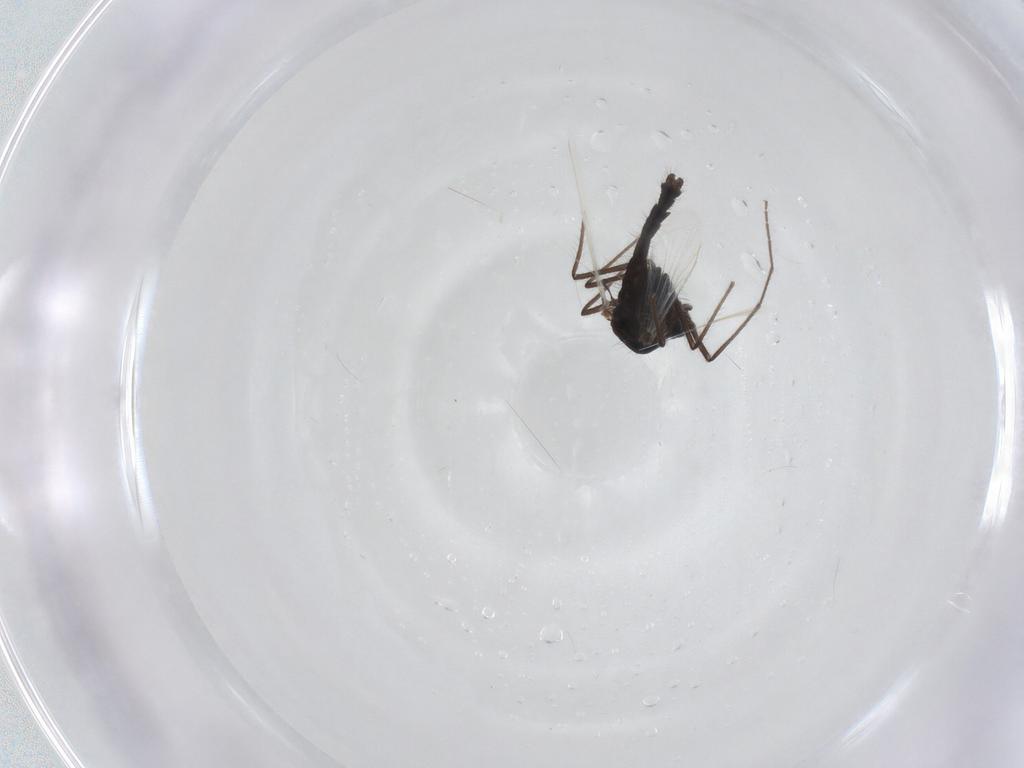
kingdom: Animalia
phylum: Arthropoda
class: Insecta
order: Diptera
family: Chironomidae
